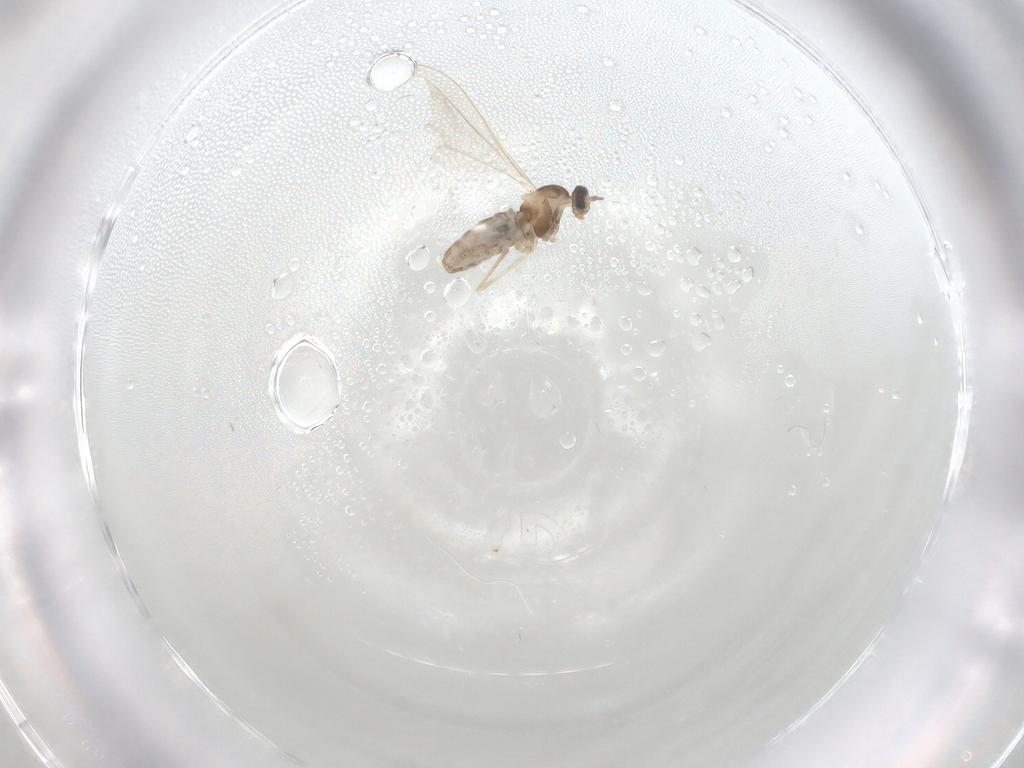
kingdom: Animalia
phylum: Arthropoda
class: Insecta
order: Diptera
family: Cecidomyiidae
